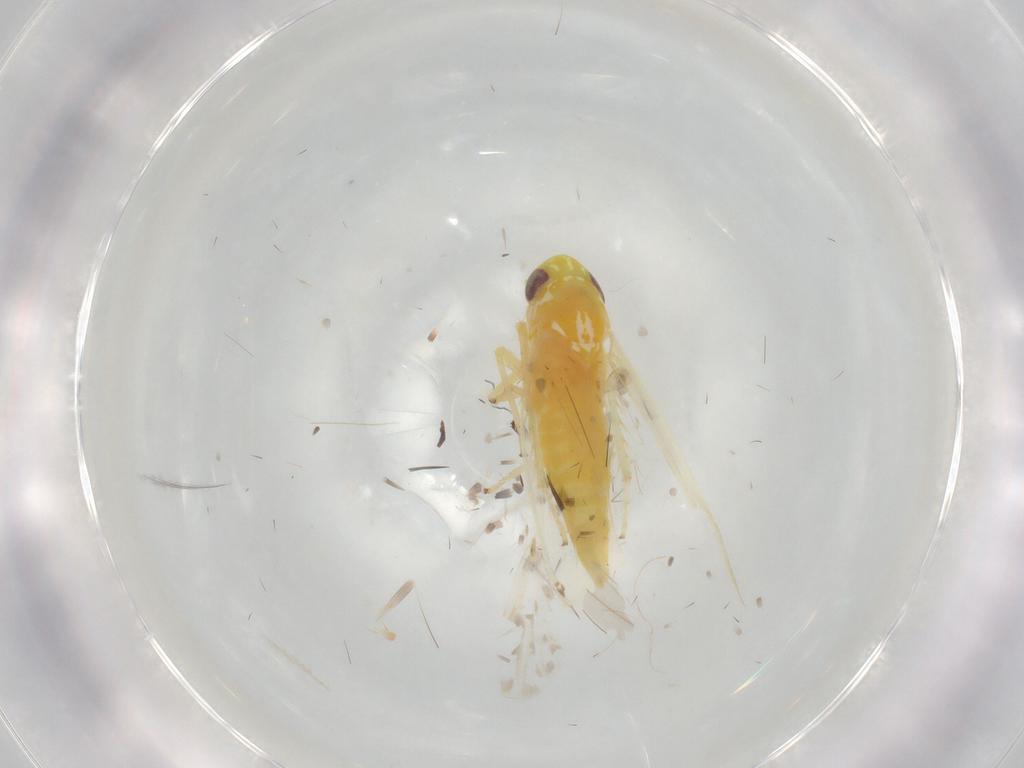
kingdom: Animalia
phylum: Arthropoda
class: Insecta
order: Hemiptera
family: Cicadellidae
